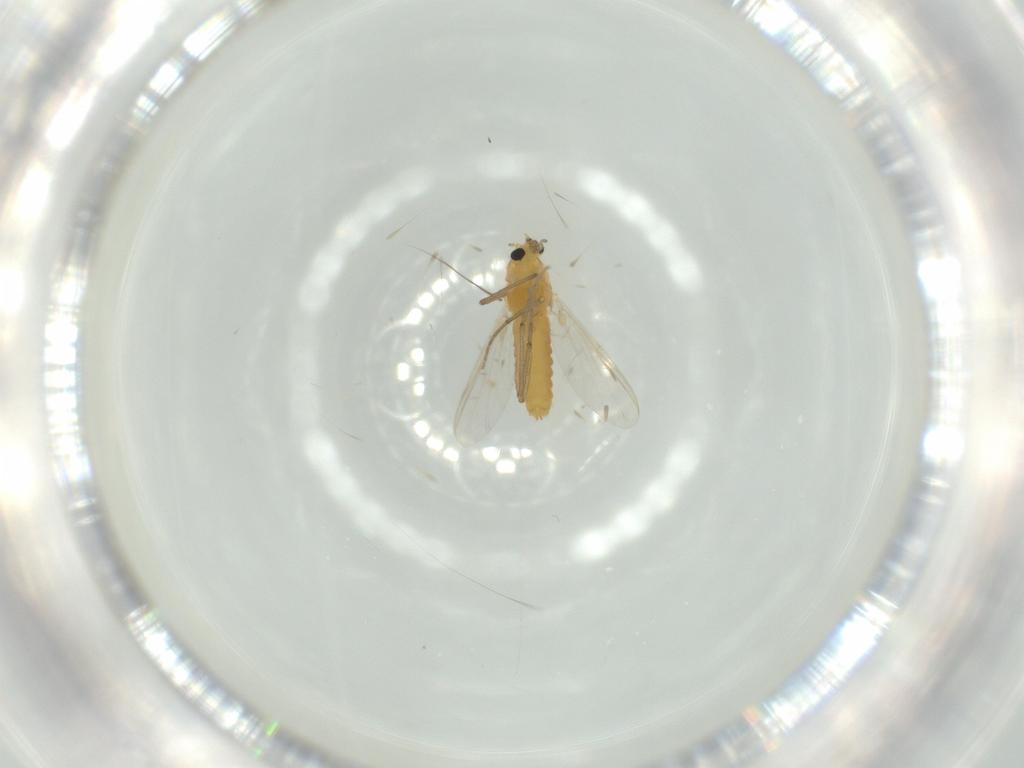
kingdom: Animalia
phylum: Arthropoda
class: Insecta
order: Diptera
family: Chironomidae
